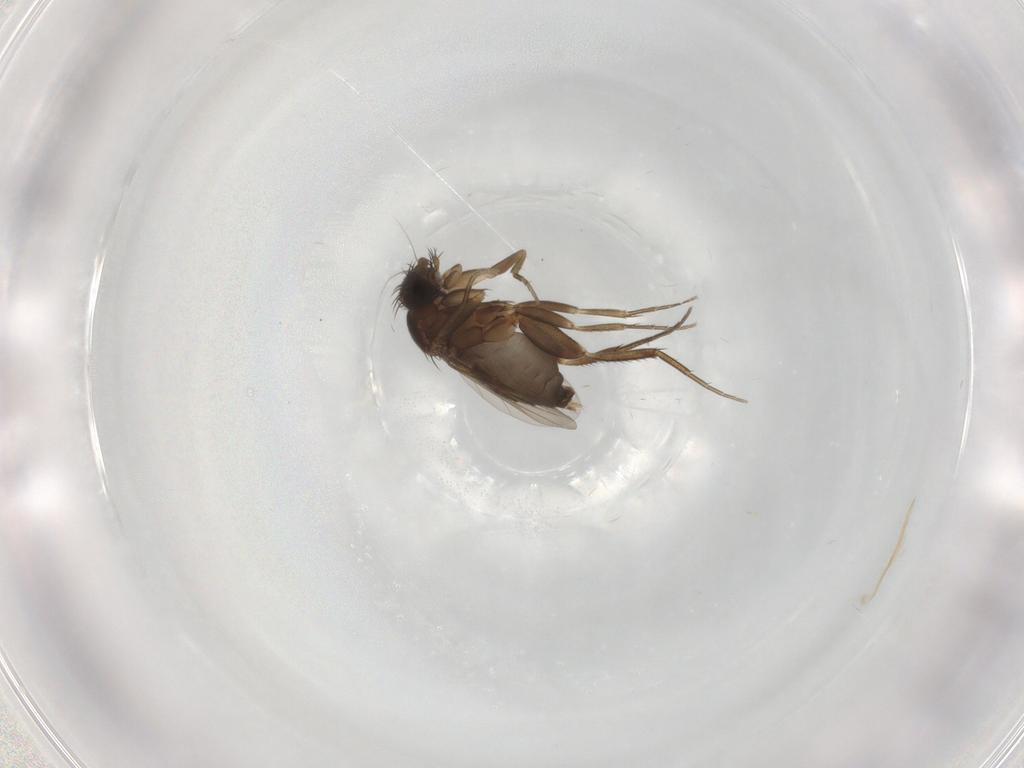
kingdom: Animalia
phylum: Arthropoda
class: Insecta
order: Diptera
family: Phoridae
